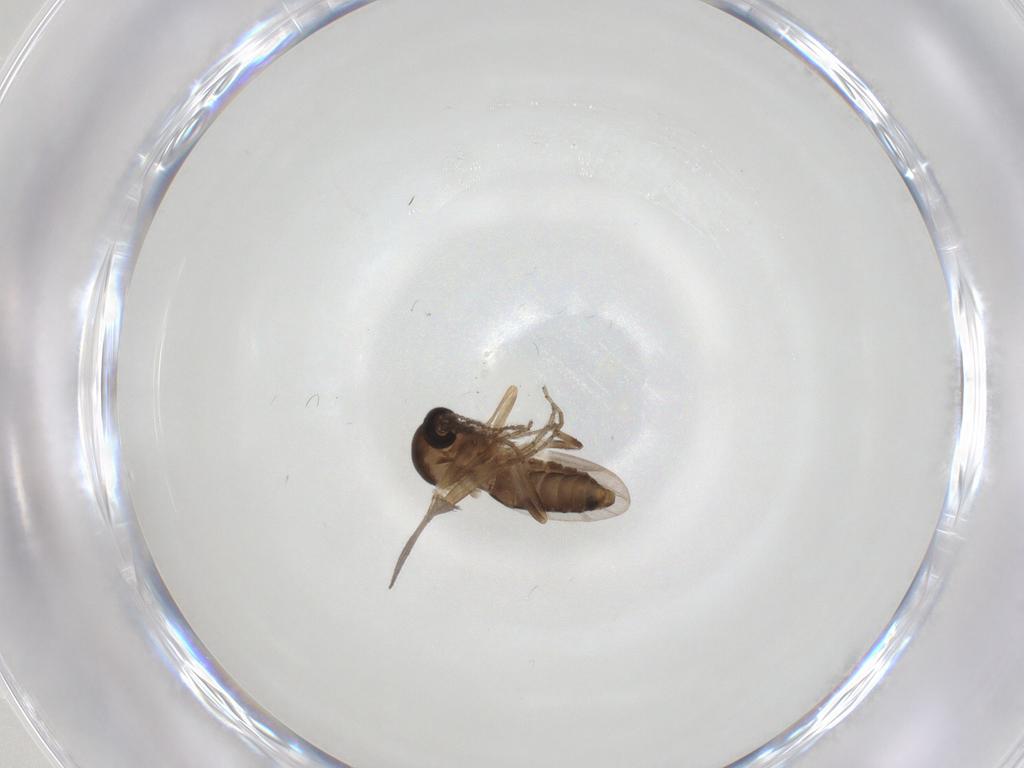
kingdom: Animalia
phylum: Arthropoda
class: Insecta
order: Diptera
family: Ceratopogonidae
